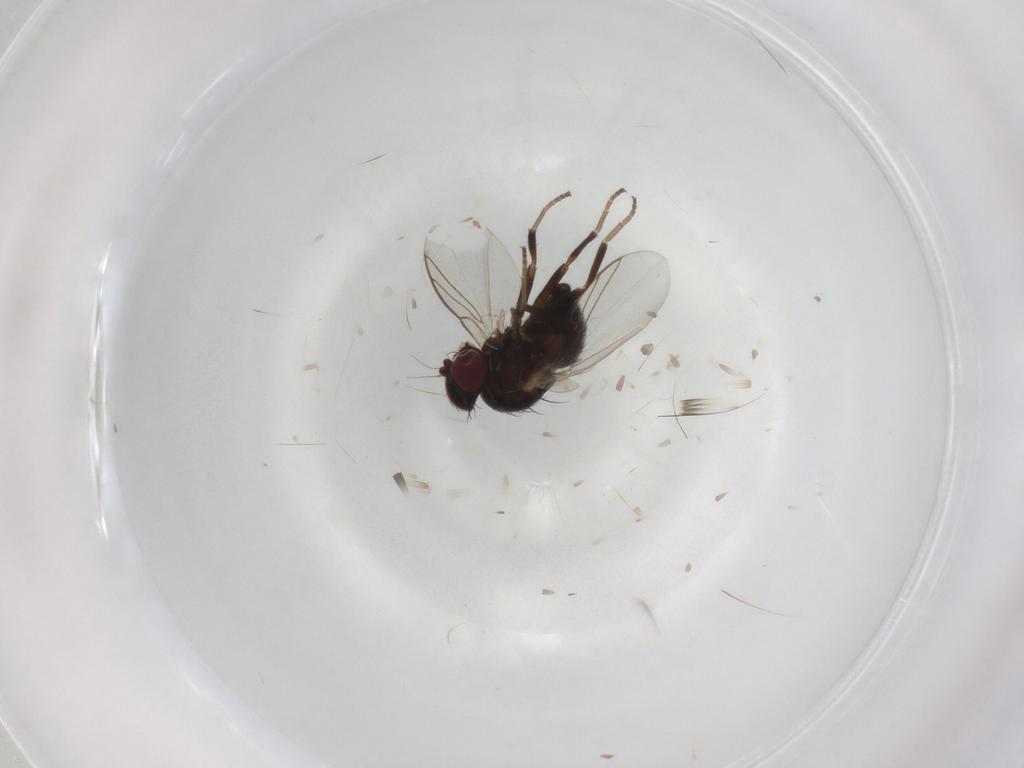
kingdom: Animalia
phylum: Arthropoda
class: Insecta
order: Diptera
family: Agromyzidae
